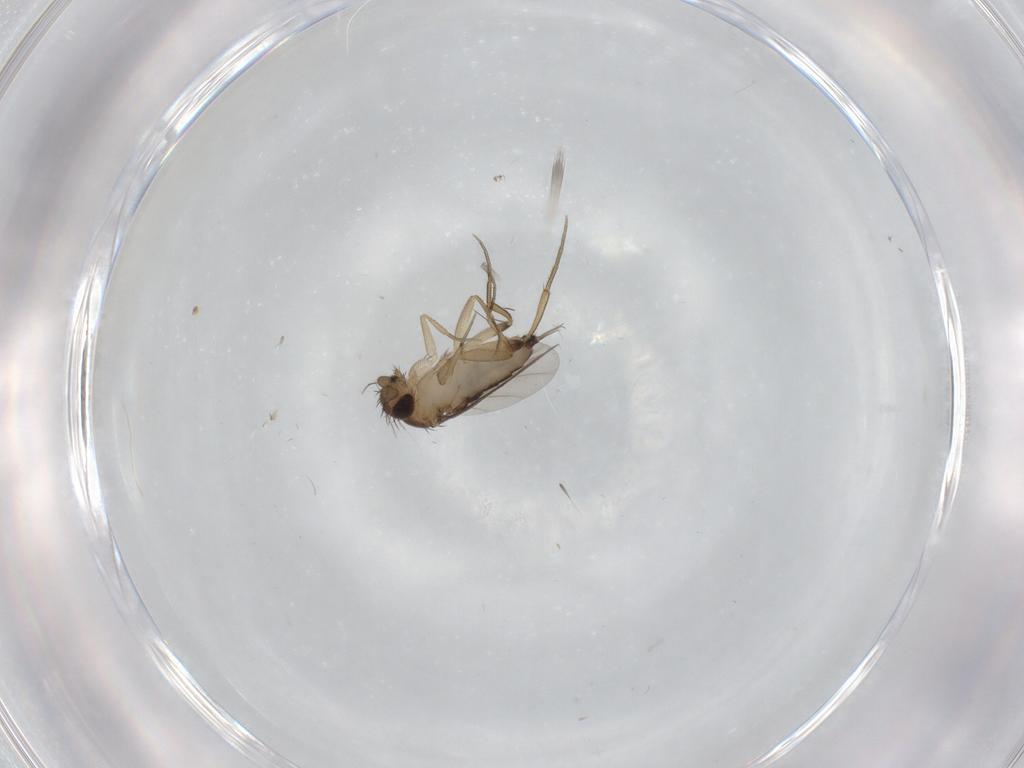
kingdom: Animalia
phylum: Arthropoda
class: Insecta
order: Diptera
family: Phoridae
